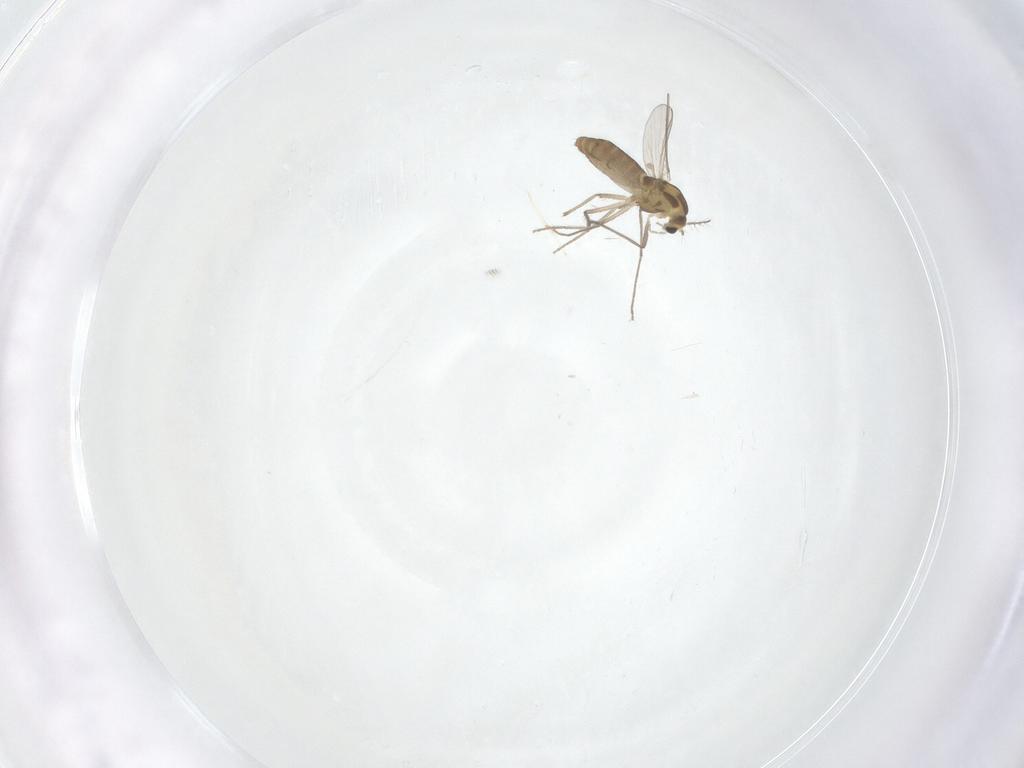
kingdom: Animalia
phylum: Arthropoda
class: Insecta
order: Diptera
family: Chironomidae
